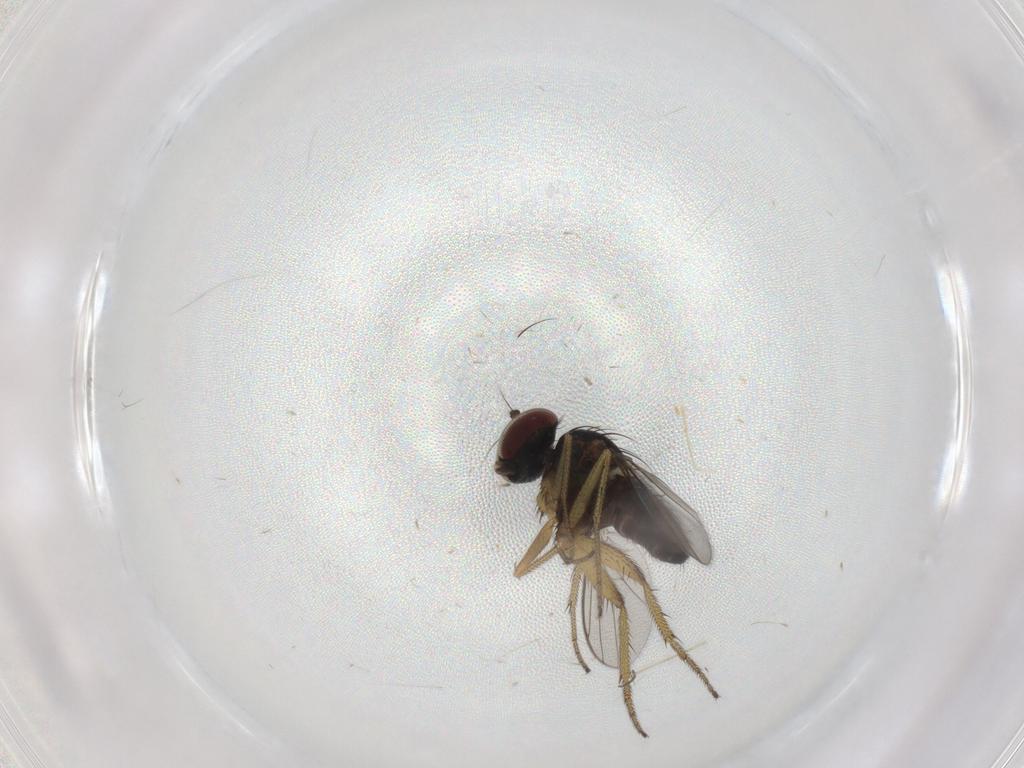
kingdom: Animalia
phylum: Arthropoda
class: Insecta
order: Diptera
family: Dolichopodidae
